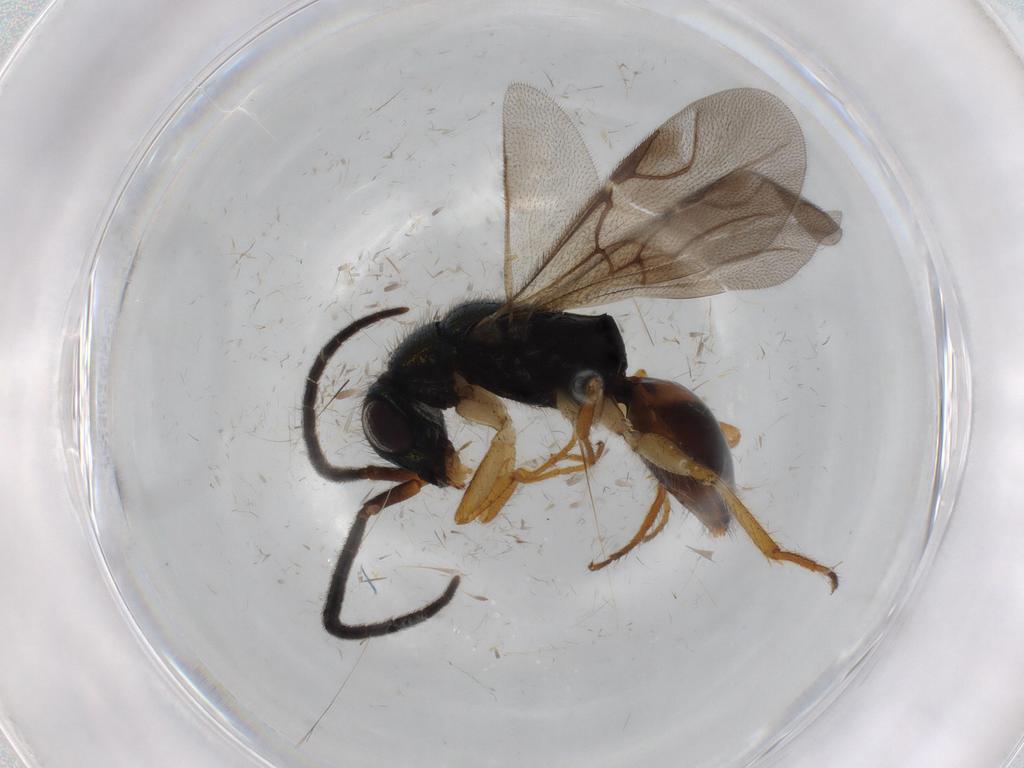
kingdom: Animalia
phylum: Arthropoda
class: Insecta
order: Hymenoptera
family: Chrysididae
